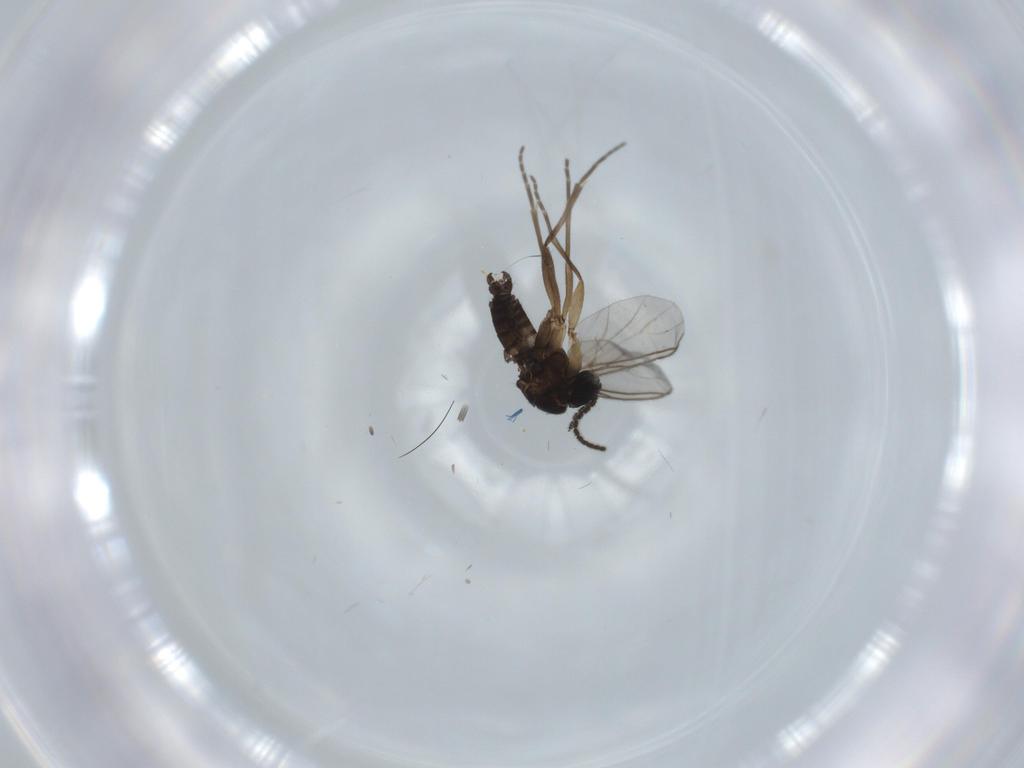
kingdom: Animalia
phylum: Arthropoda
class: Insecta
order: Diptera
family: Sciaridae
